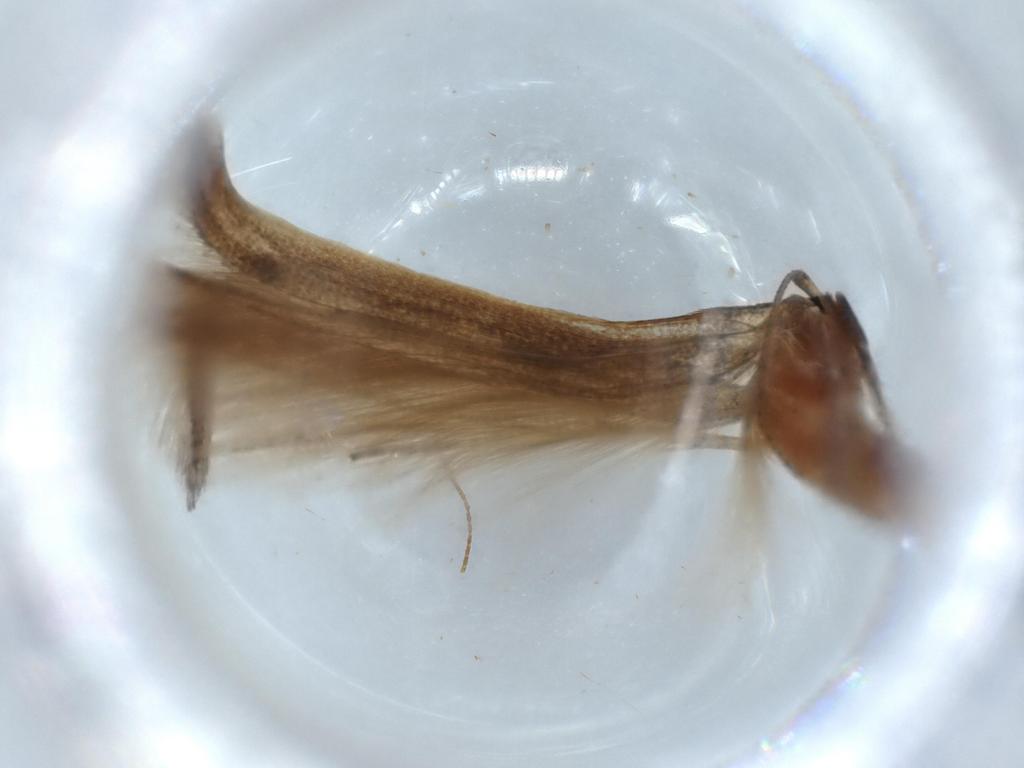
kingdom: Animalia
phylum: Arthropoda
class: Insecta
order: Lepidoptera
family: Stathmopodidae
